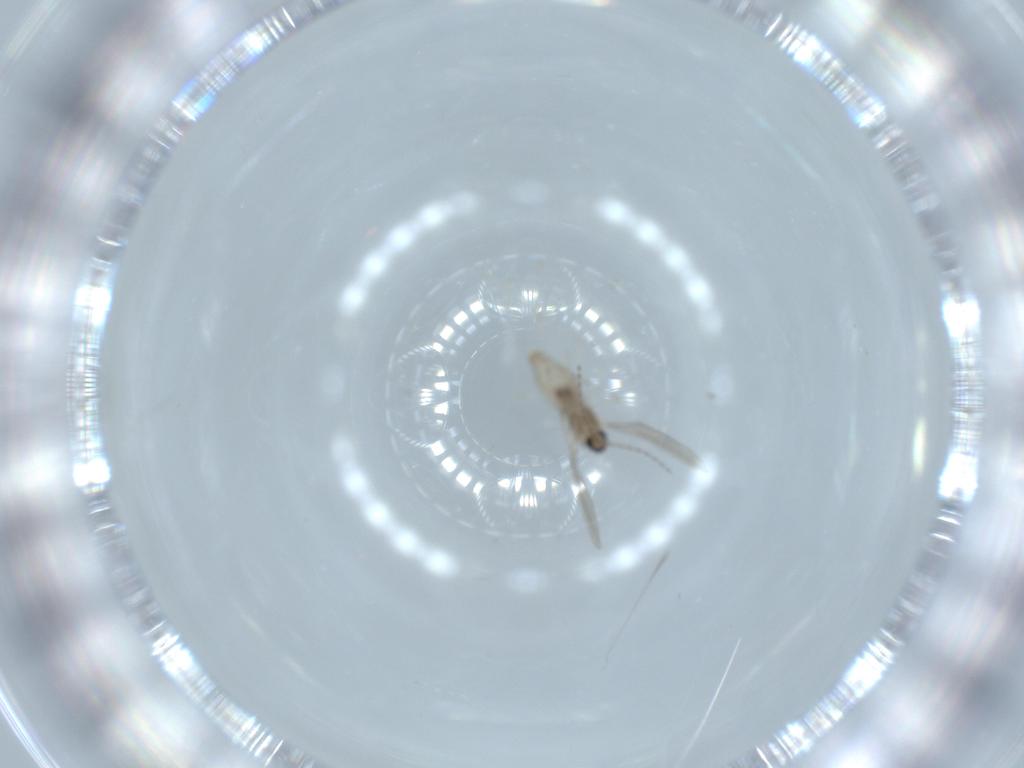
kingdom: Animalia
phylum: Arthropoda
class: Insecta
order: Diptera
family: Cecidomyiidae
